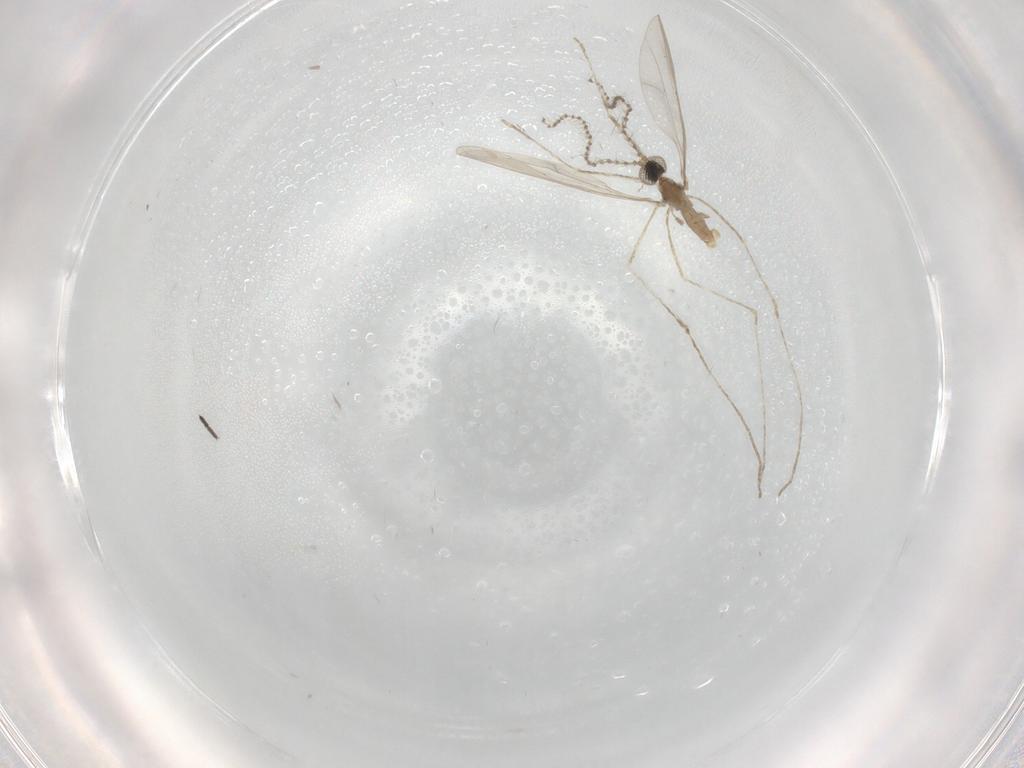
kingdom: Animalia
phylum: Arthropoda
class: Insecta
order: Diptera
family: Cecidomyiidae
